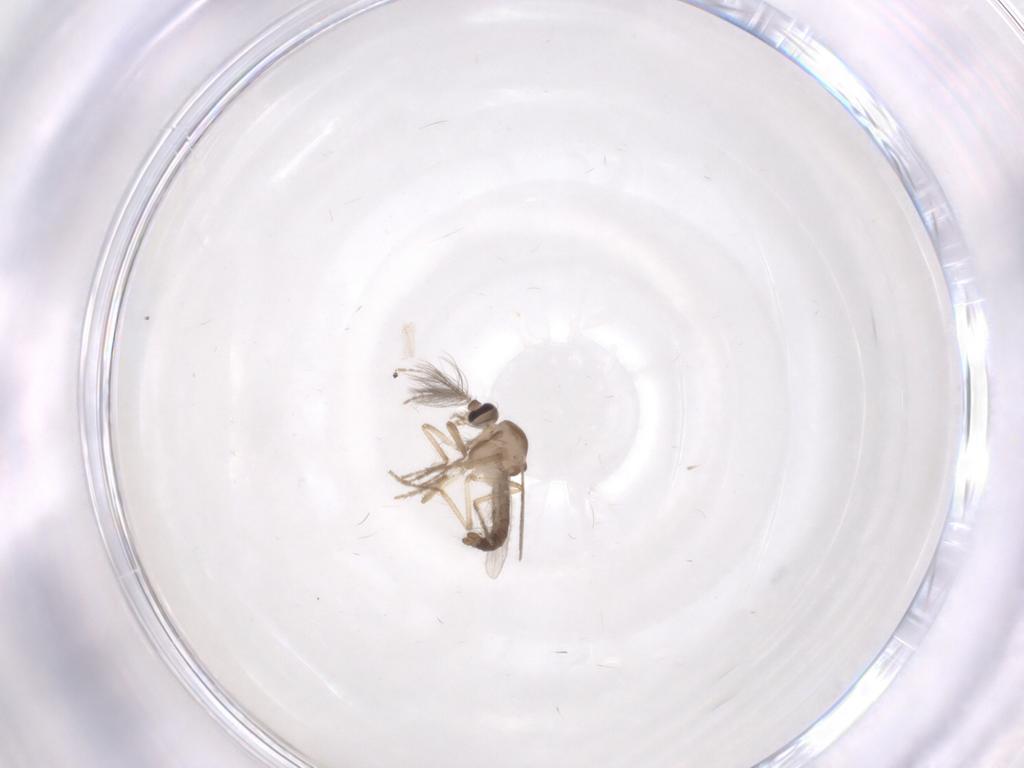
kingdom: Animalia
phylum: Arthropoda
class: Insecta
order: Diptera
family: Ceratopogonidae
